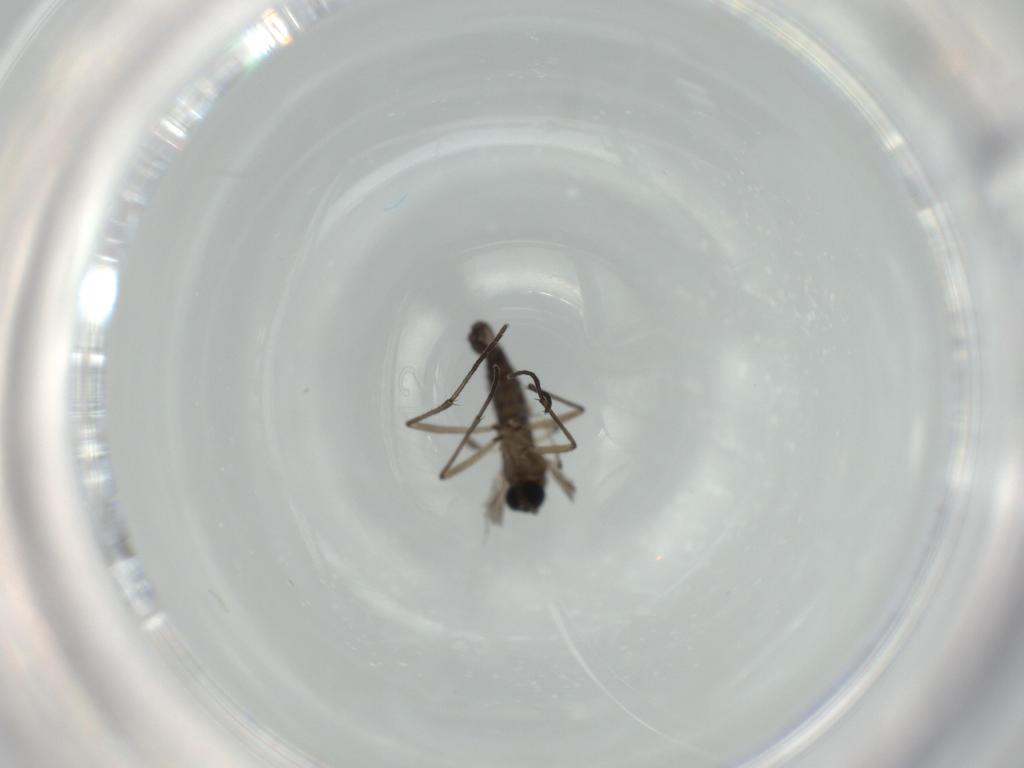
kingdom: Animalia
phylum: Arthropoda
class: Insecta
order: Diptera
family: Sciaridae
